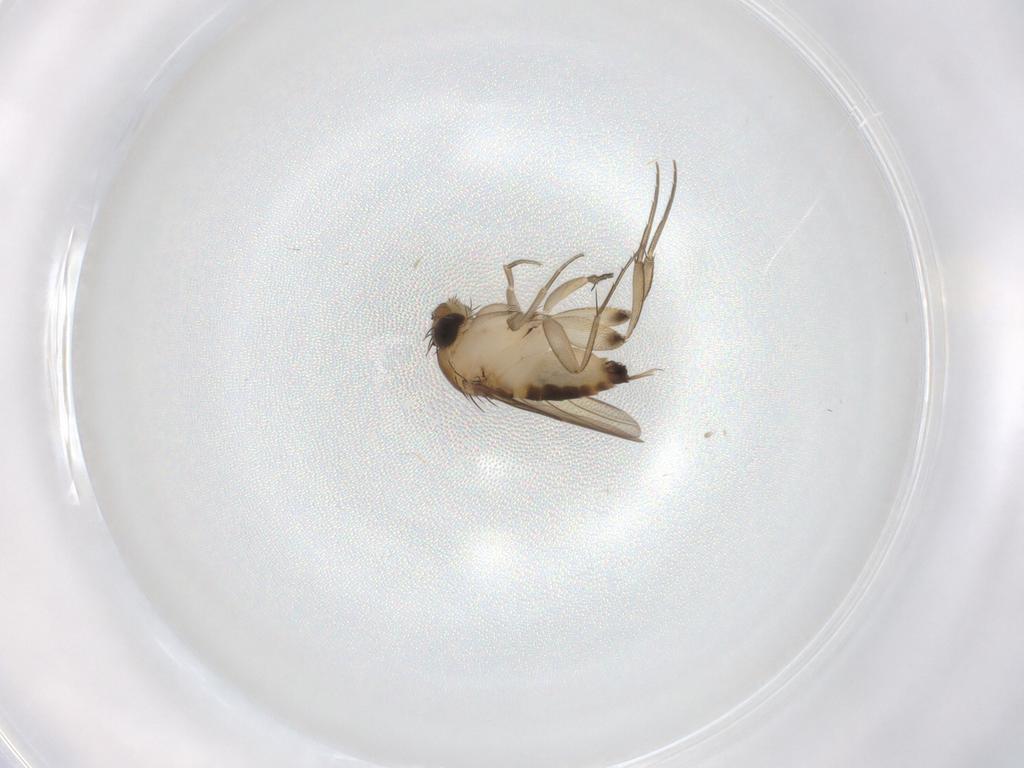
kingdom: Animalia
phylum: Arthropoda
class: Insecta
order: Diptera
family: Phoridae
